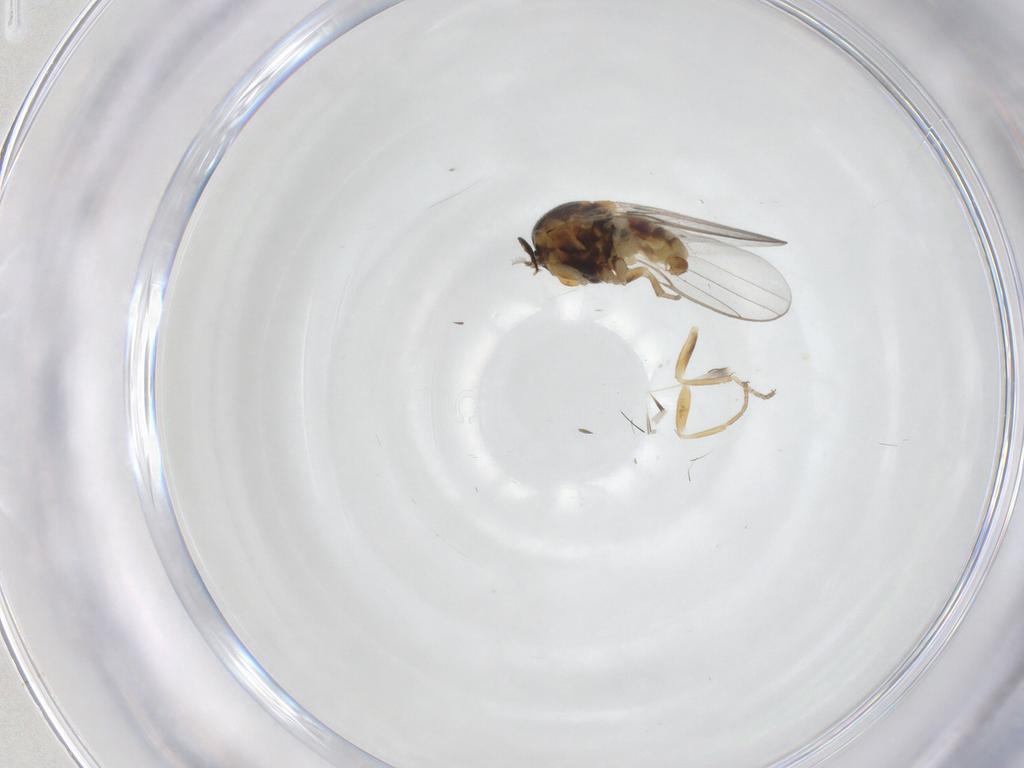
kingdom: Animalia
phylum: Arthropoda
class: Insecta
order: Diptera
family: Chloropidae
